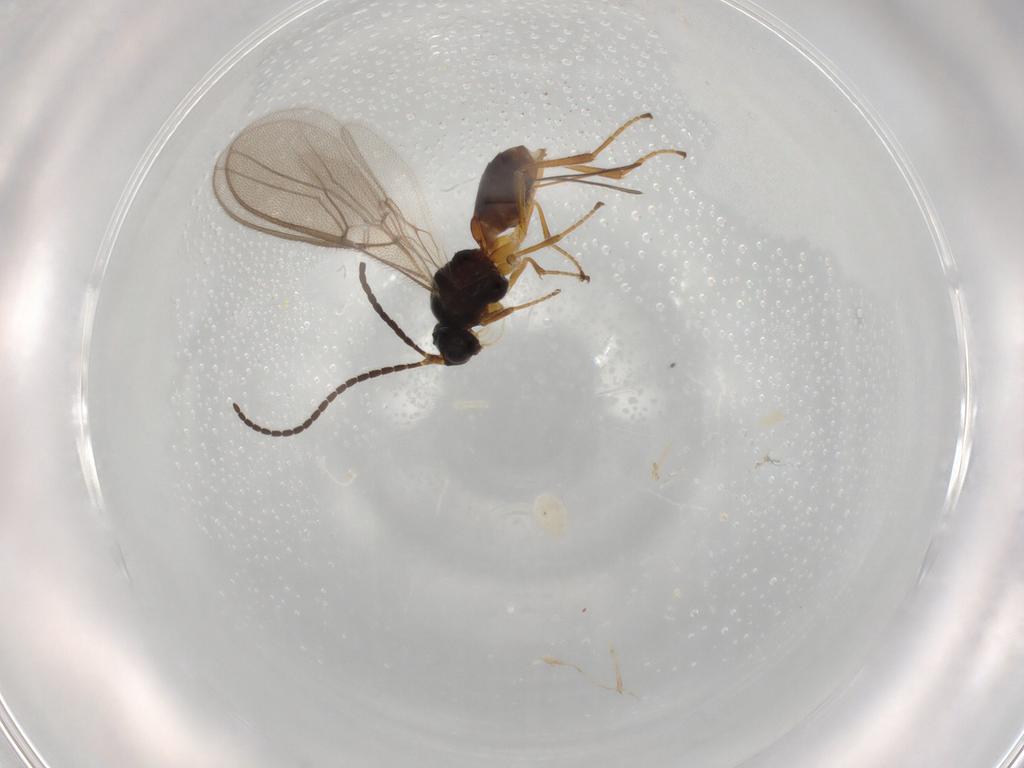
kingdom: Animalia
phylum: Arthropoda
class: Insecta
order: Hymenoptera
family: Braconidae
